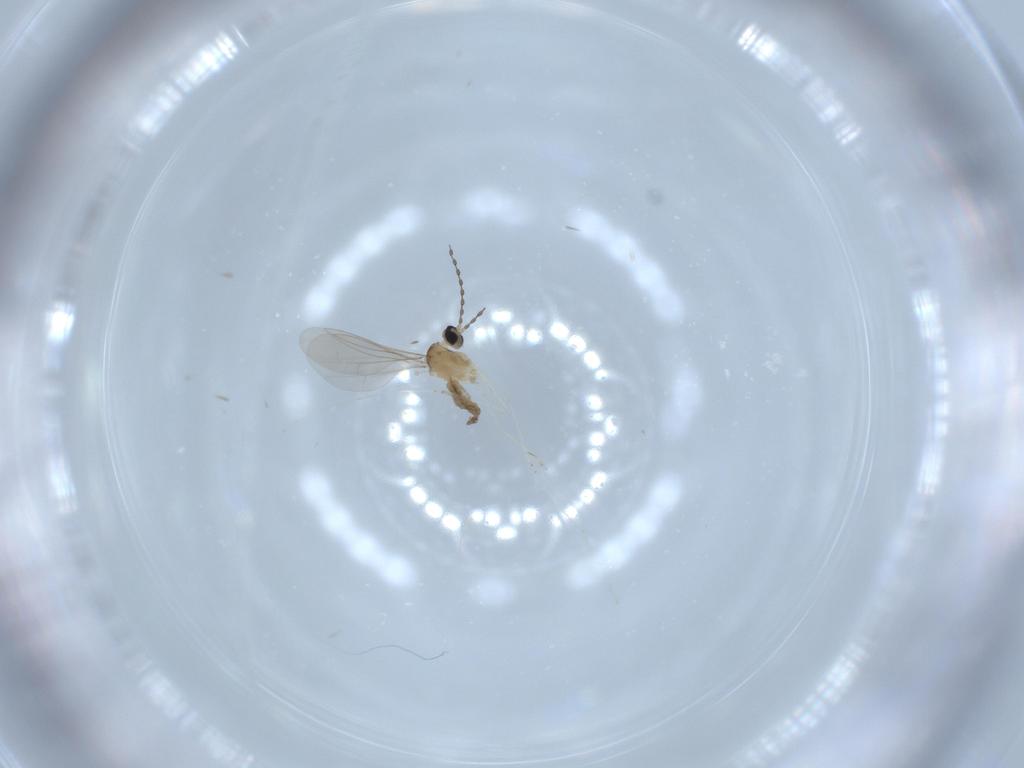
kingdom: Animalia
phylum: Arthropoda
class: Insecta
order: Diptera
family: Cecidomyiidae
